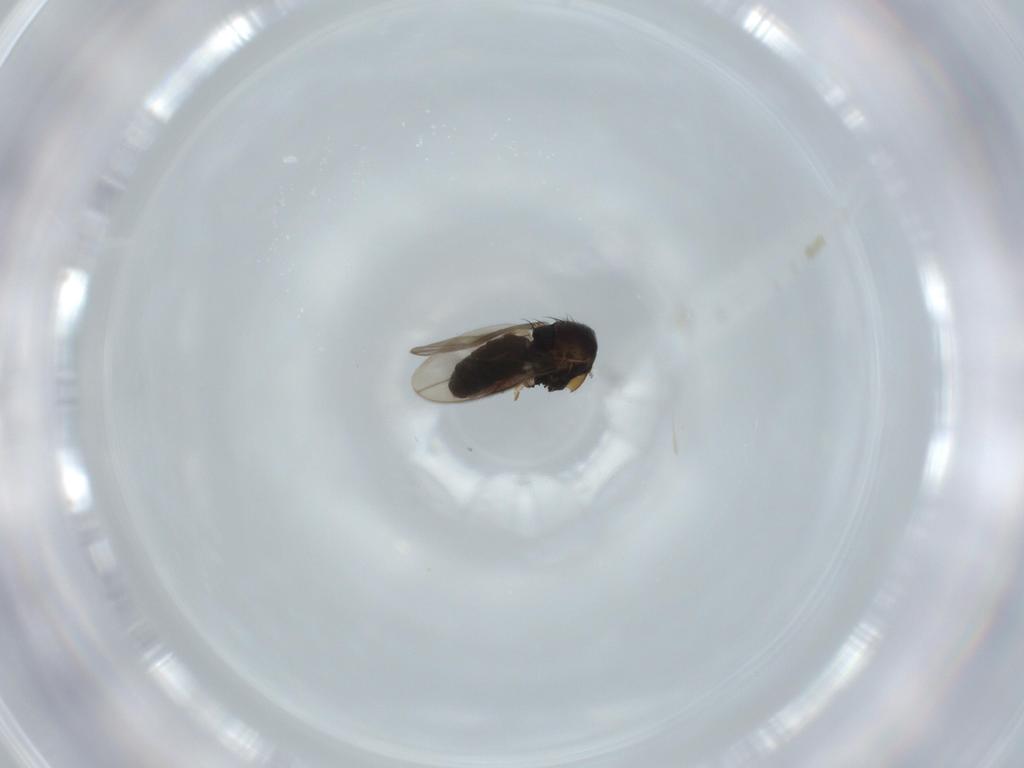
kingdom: Animalia
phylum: Arthropoda
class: Insecta
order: Diptera
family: Sphaeroceridae
